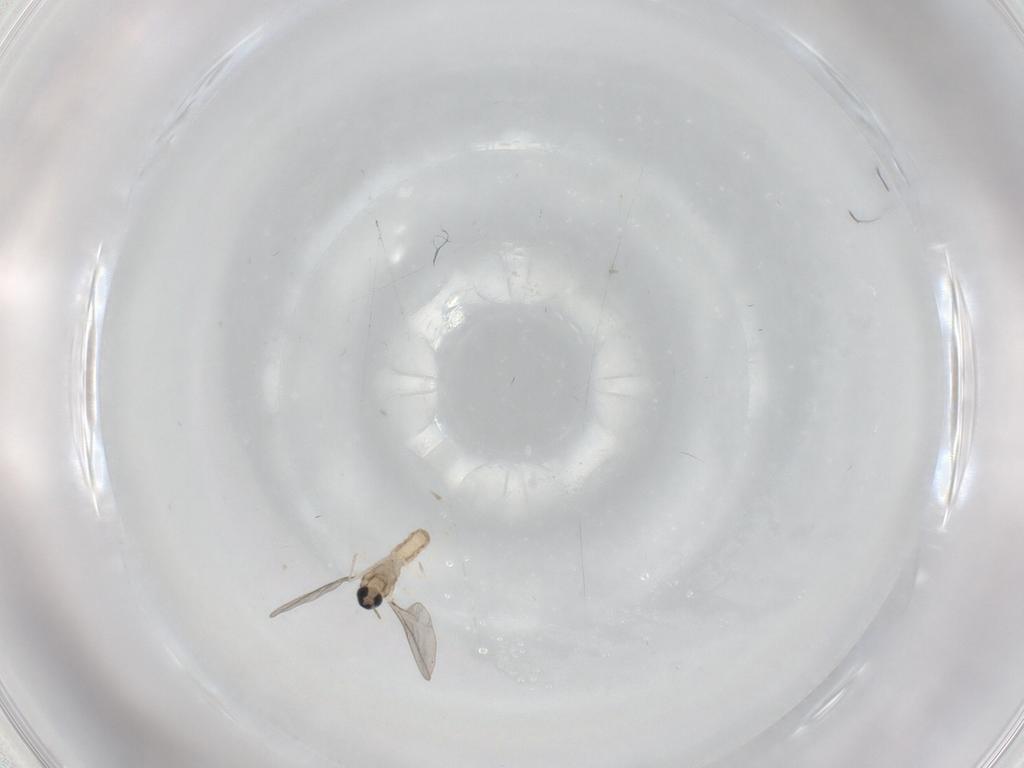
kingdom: Animalia
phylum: Arthropoda
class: Insecta
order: Diptera
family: Cecidomyiidae
